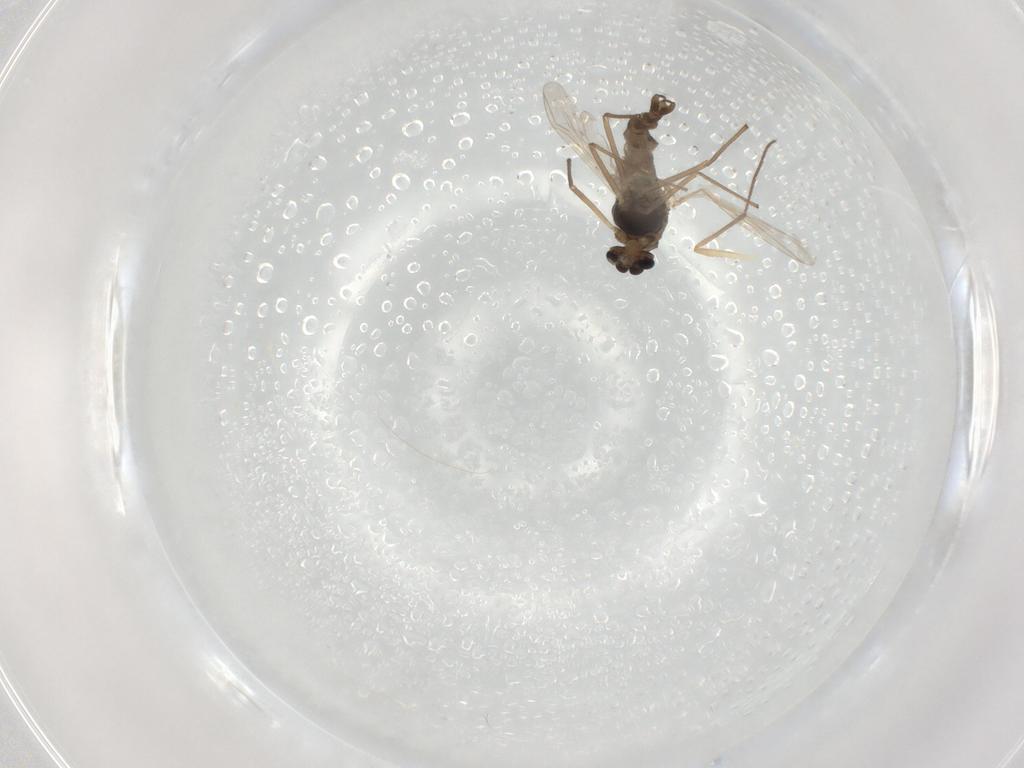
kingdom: Animalia
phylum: Arthropoda
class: Insecta
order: Diptera
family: Chironomidae
